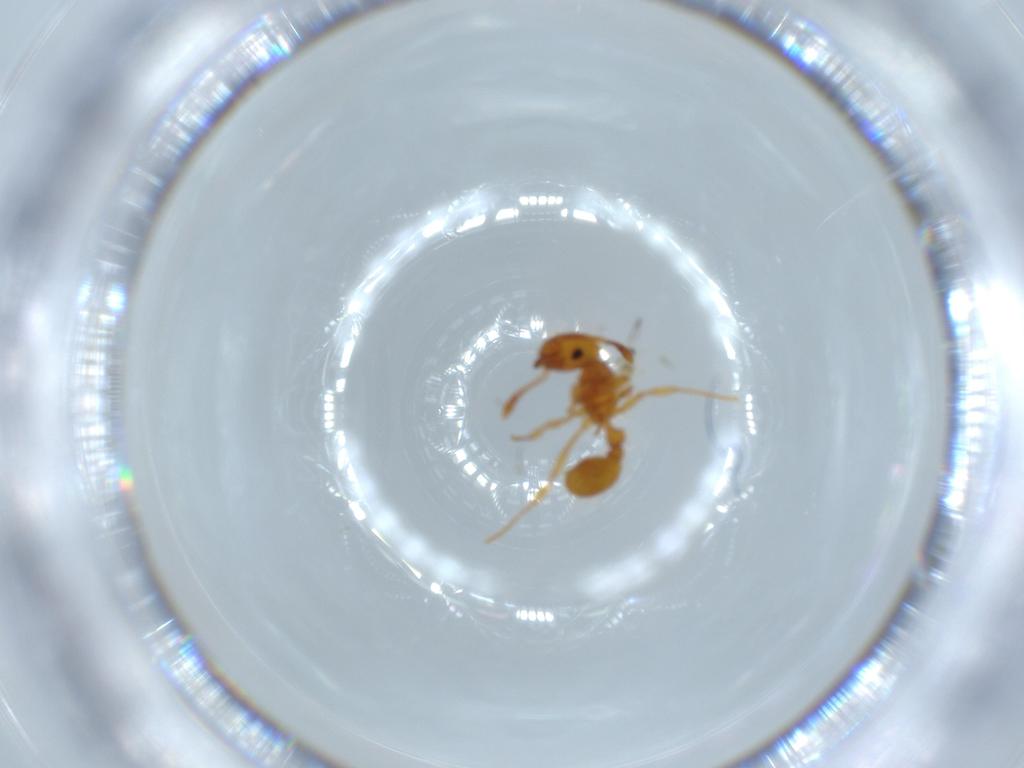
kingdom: Animalia
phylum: Arthropoda
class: Insecta
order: Hymenoptera
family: Formicidae
